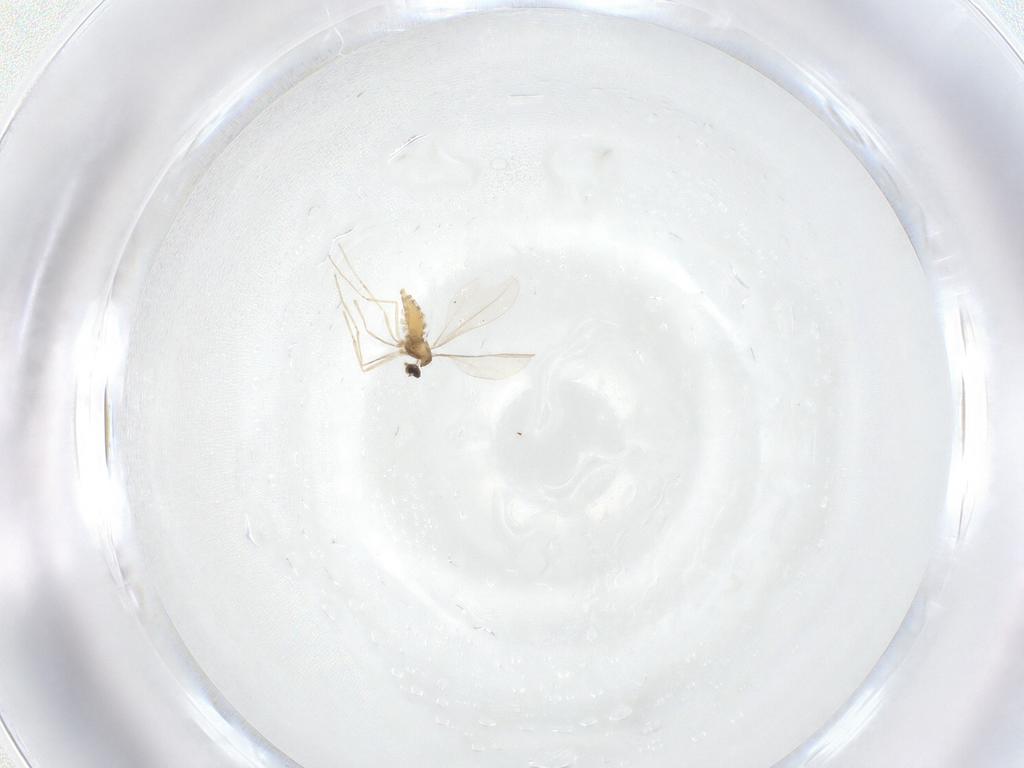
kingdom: Animalia
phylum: Arthropoda
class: Insecta
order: Diptera
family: Cecidomyiidae
